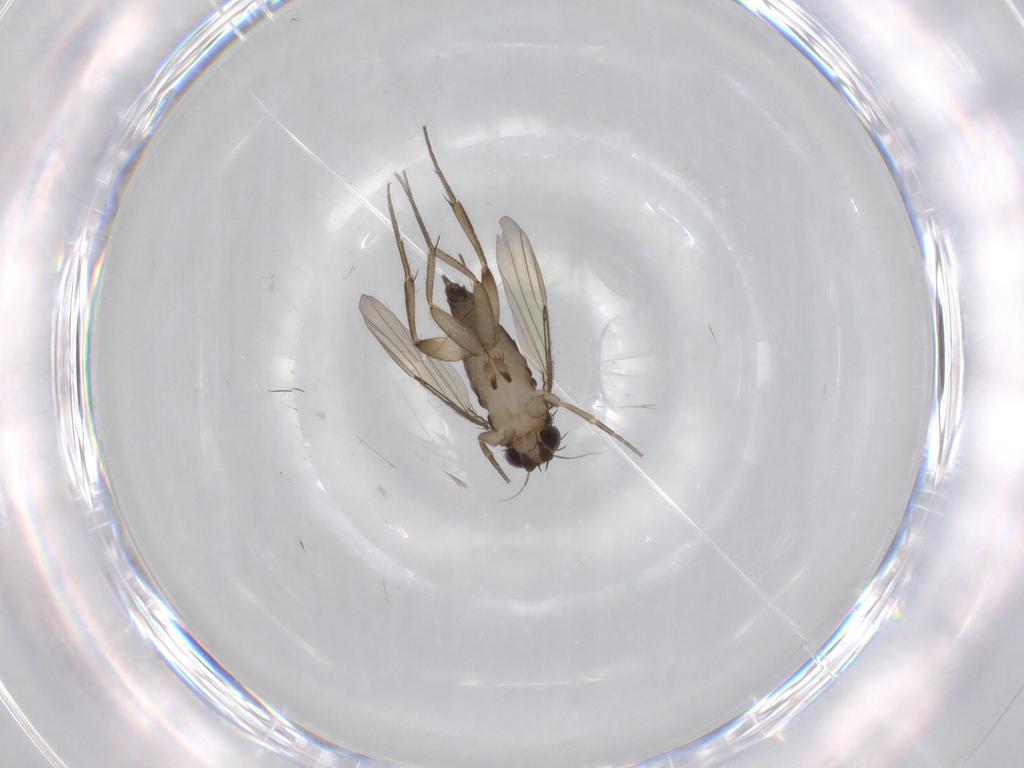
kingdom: Animalia
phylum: Arthropoda
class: Insecta
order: Diptera
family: Phoridae
